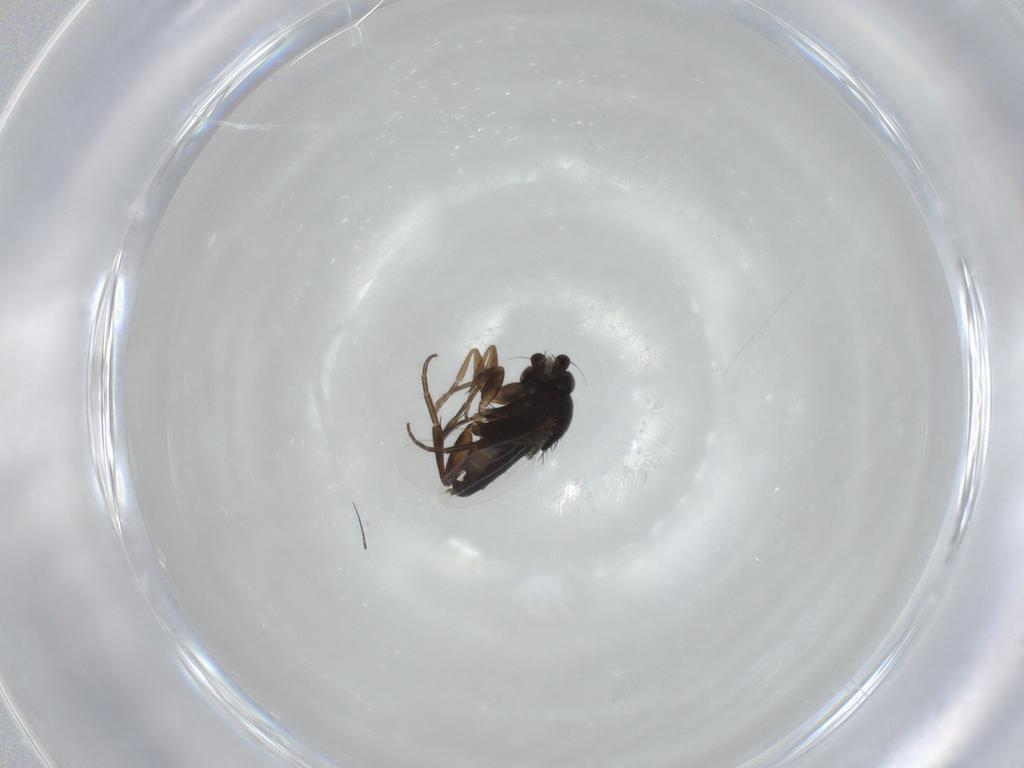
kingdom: Animalia
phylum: Arthropoda
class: Insecta
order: Diptera
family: Phoridae
